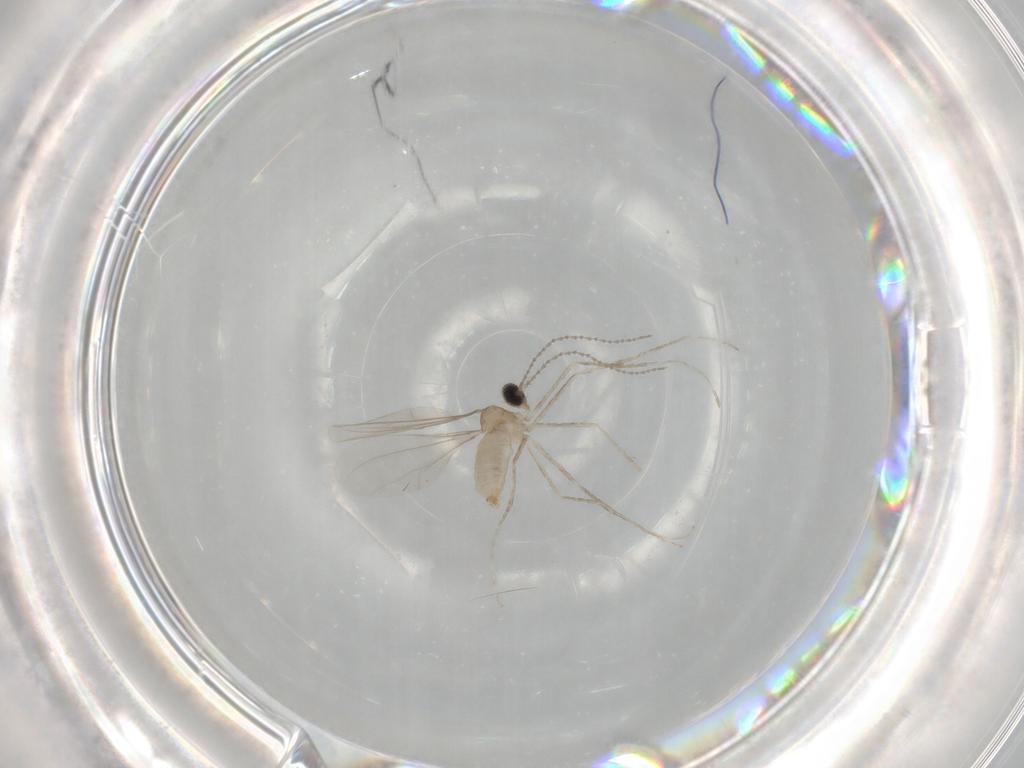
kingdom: Animalia
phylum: Arthropoda
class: Insecta
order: Diptera
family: Cecidomyiidae
